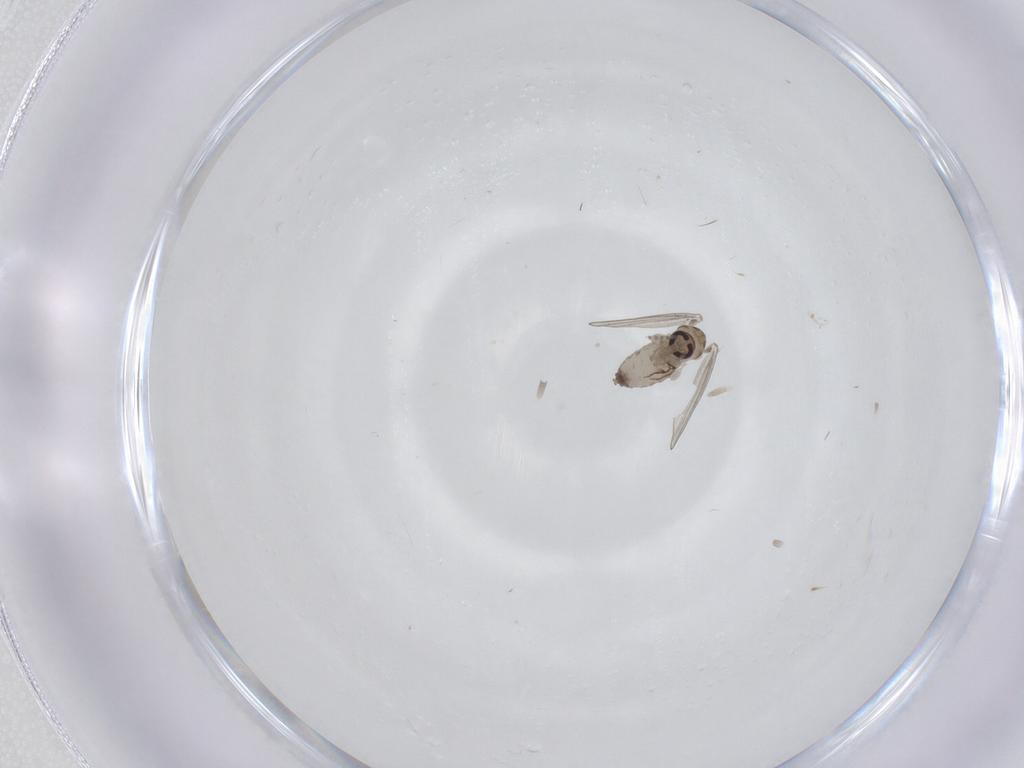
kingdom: Animalia
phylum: Arthropoda
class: Insecta
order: Diptera
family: Psychodidae
